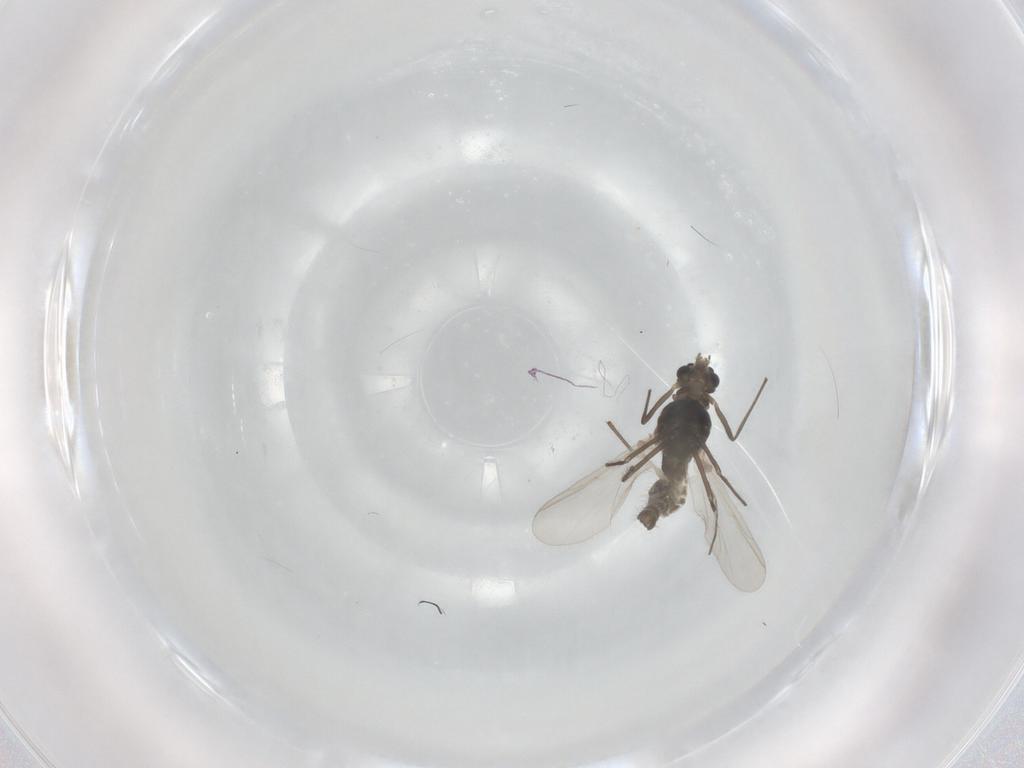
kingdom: Animalia
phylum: Arthropoda
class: Insecta
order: Diptera
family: Chironomidae
